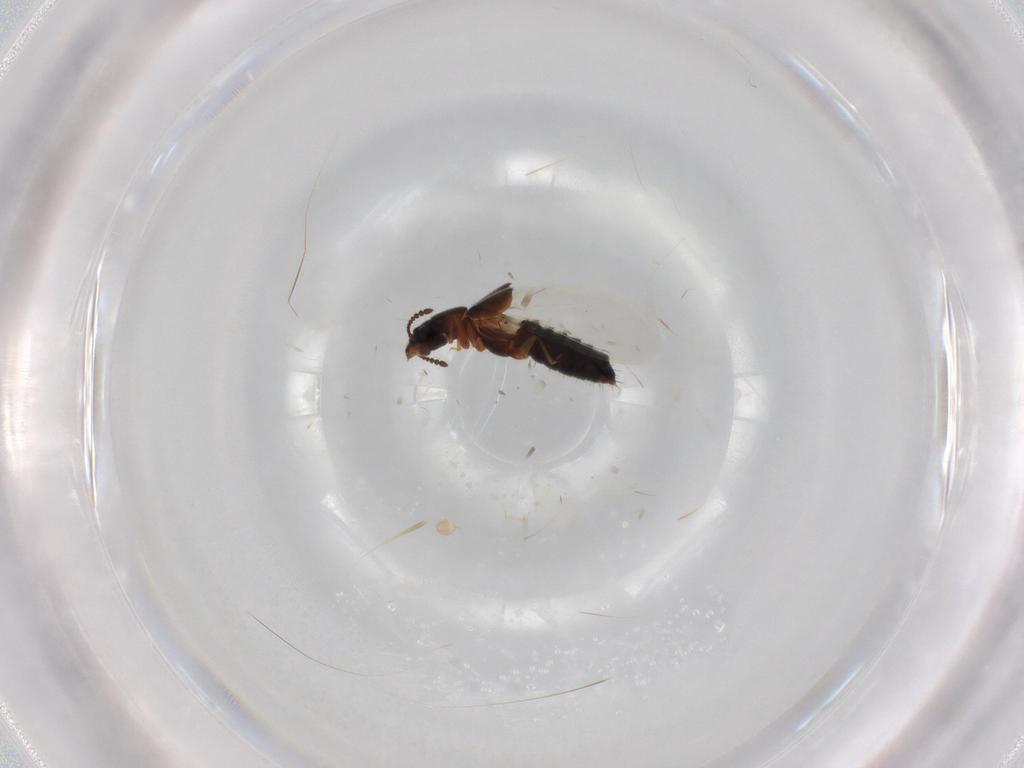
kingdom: Animalia
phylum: Arthropoda
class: Insecta
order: Coleoptera
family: Staphylinidae
